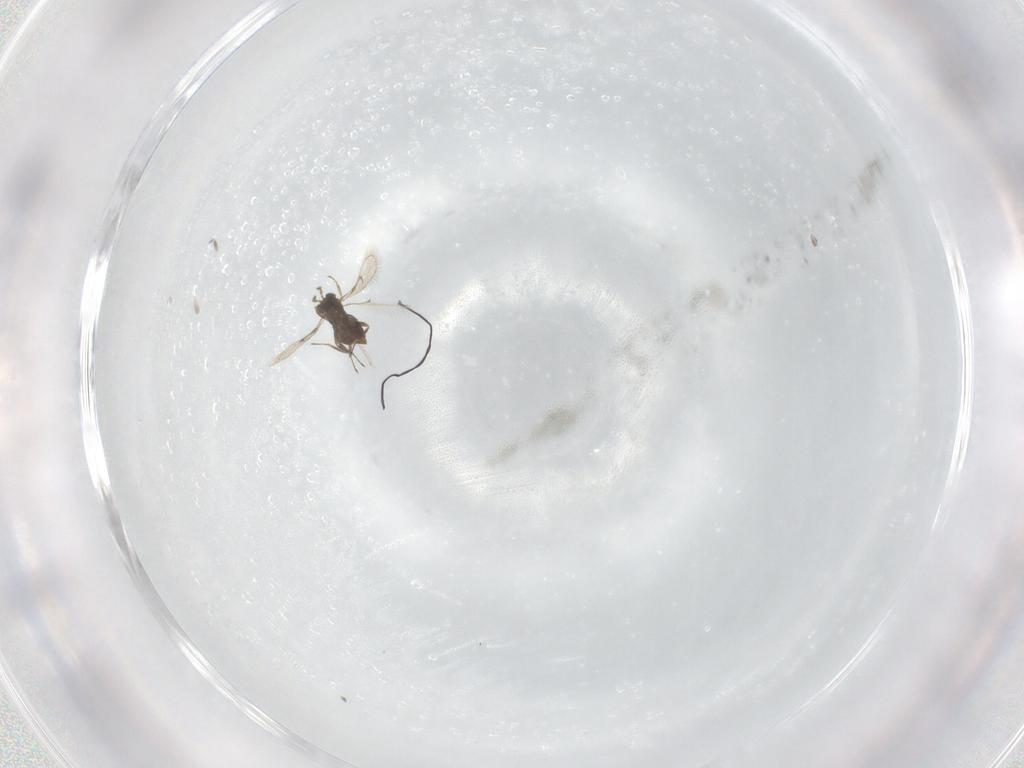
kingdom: Animalia
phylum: Arthropoda
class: Insecta
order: Hymenoptera
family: Trichogrammatidae
